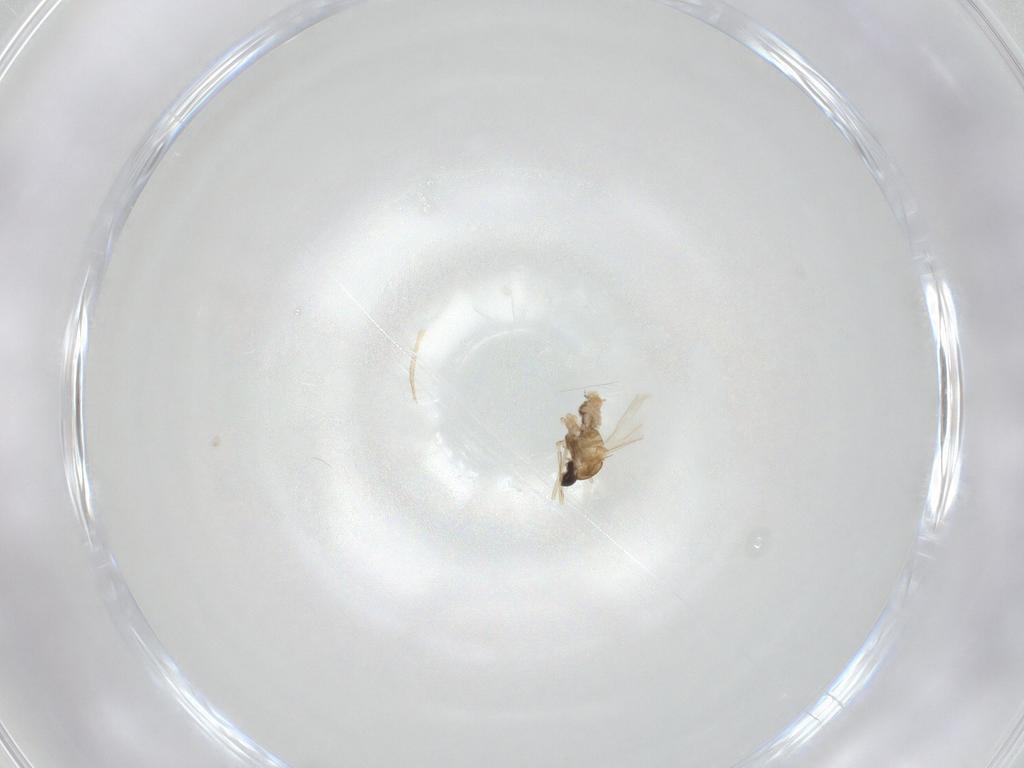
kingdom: Animalia
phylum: Arthropoda
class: Insecta
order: Diptera
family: Cecidomyiidae
